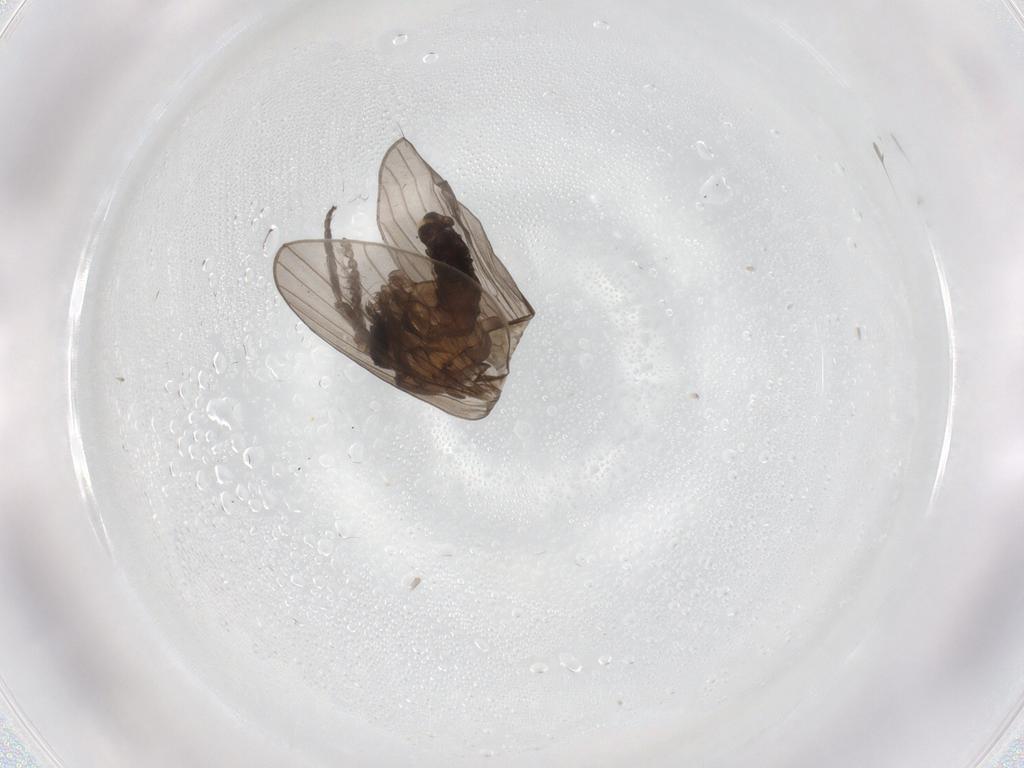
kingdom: Animalia
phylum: Arthropoda
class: Insecta
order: Diptera
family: Psychodidae
